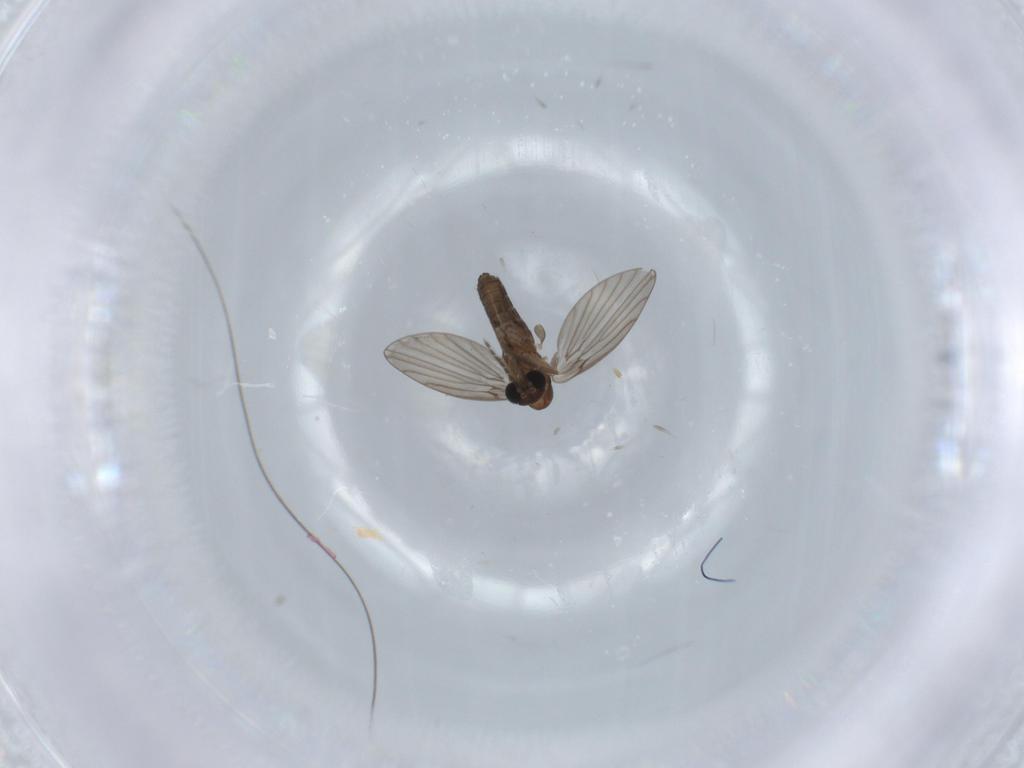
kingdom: Animalia
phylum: Arthropoda
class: Insecta
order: Diptera
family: Psychodidae
